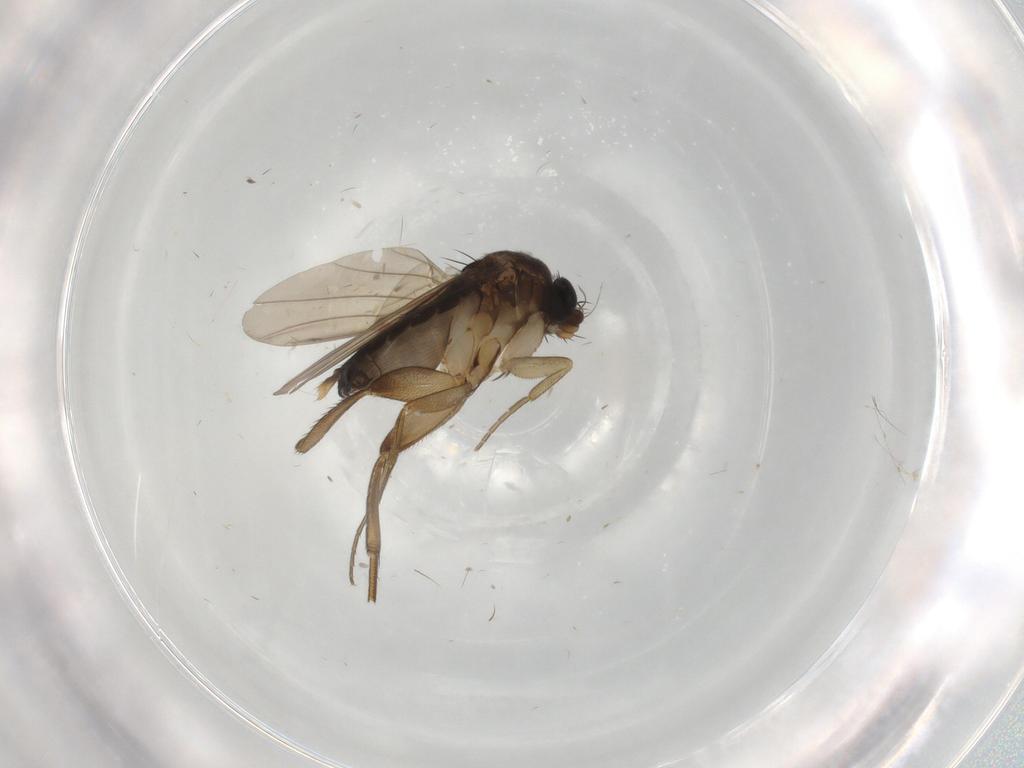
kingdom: Animalia
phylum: Arthropoda
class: Insecta
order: Diptera
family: Phoridae
